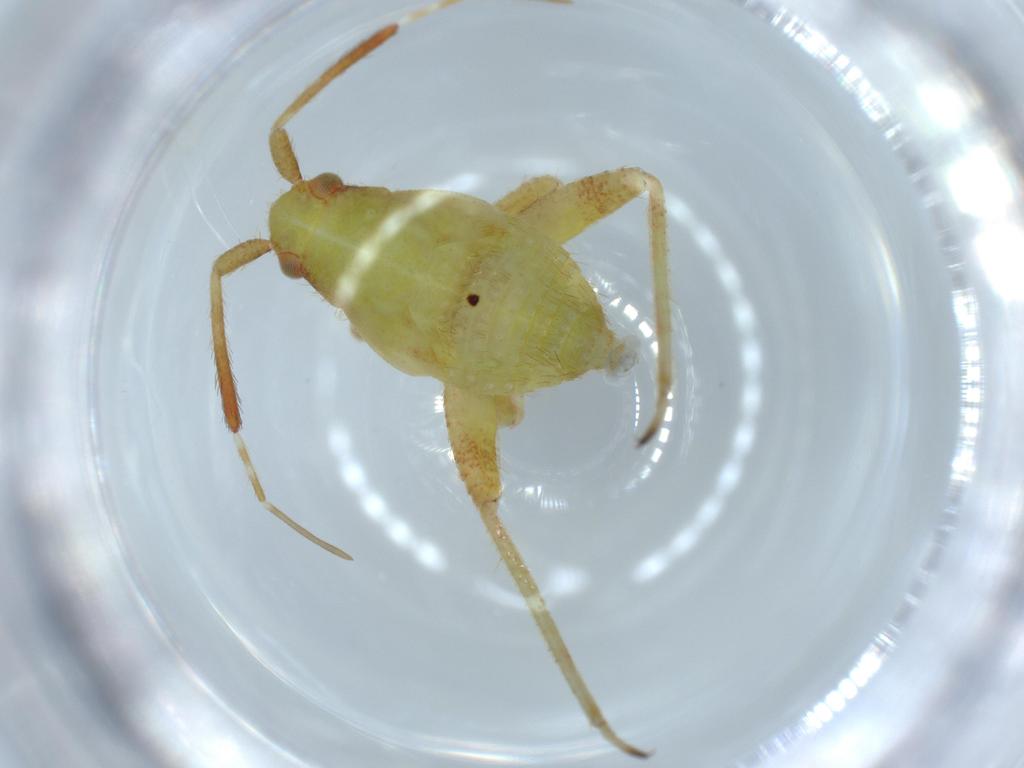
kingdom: Animalia
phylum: Arthropoda
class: Insecta
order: Hemiptera
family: Miridae
